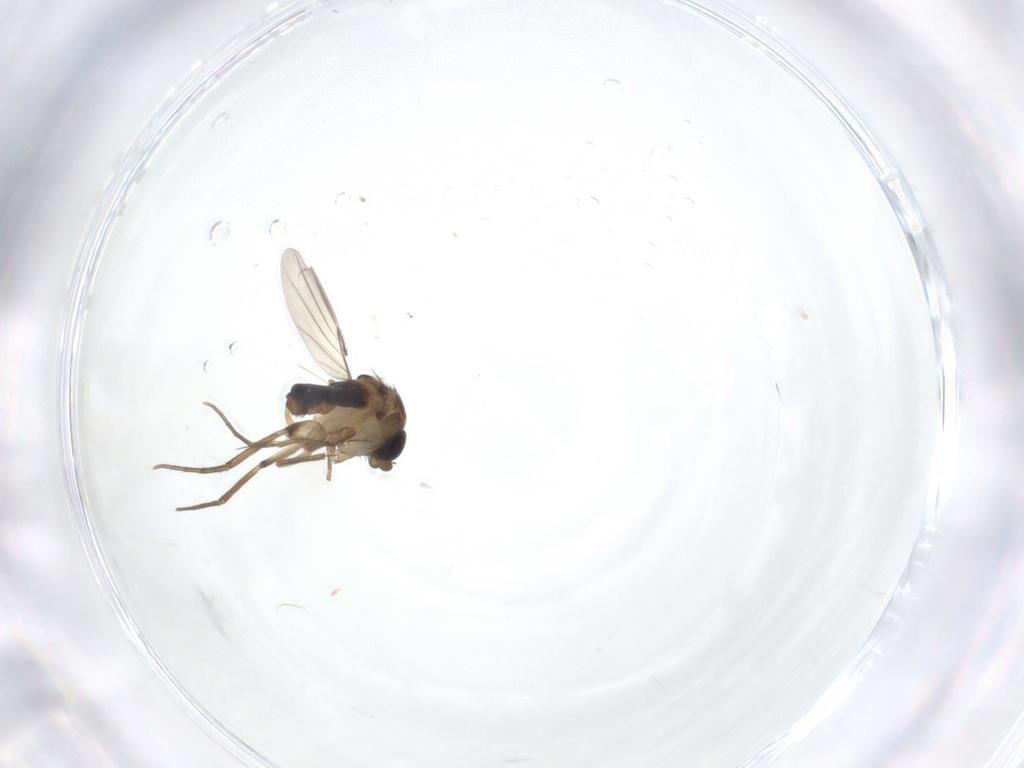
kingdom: Animalia
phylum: Arthropoda
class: Insecta
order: Diptera
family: Phoridae
